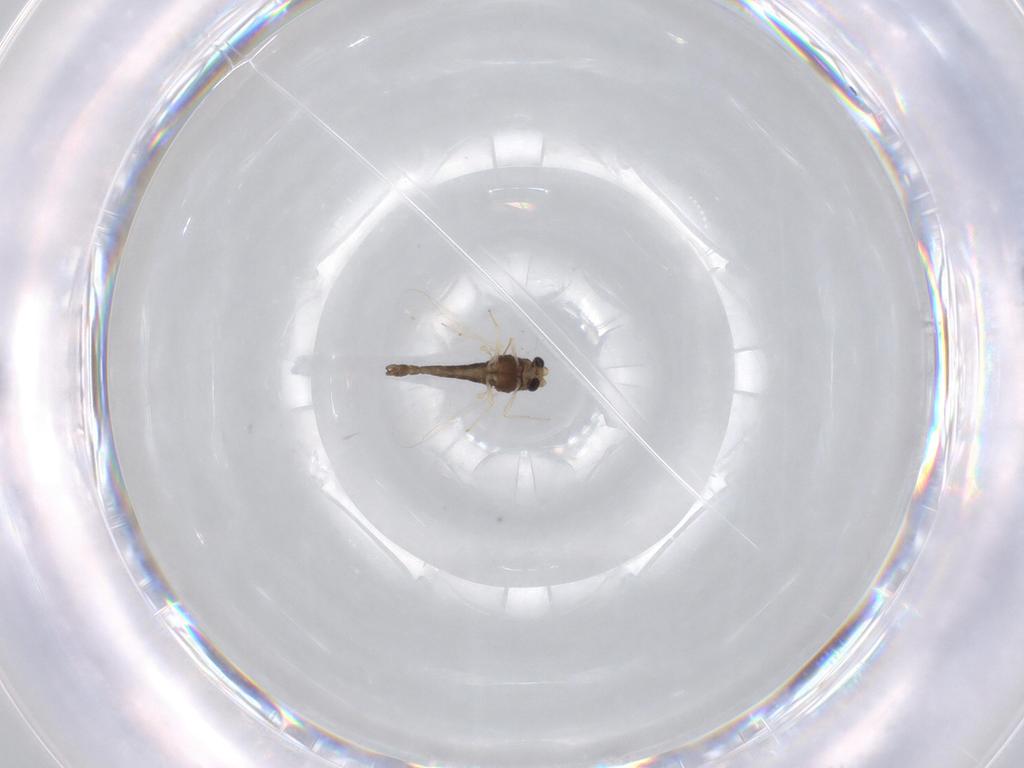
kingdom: Animalia
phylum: Arthropoda
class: Insecta
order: Diptera
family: Chironomidae
